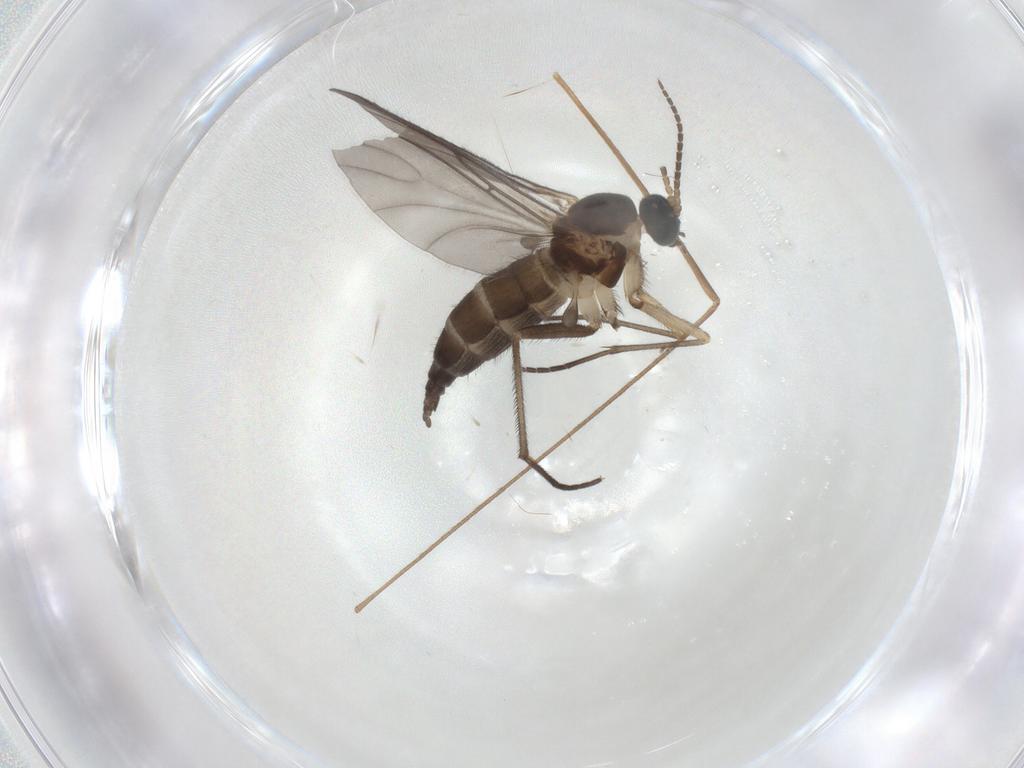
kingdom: Animalia
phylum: Arthropoda
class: Insecta
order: Diptera
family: Sciaridae
